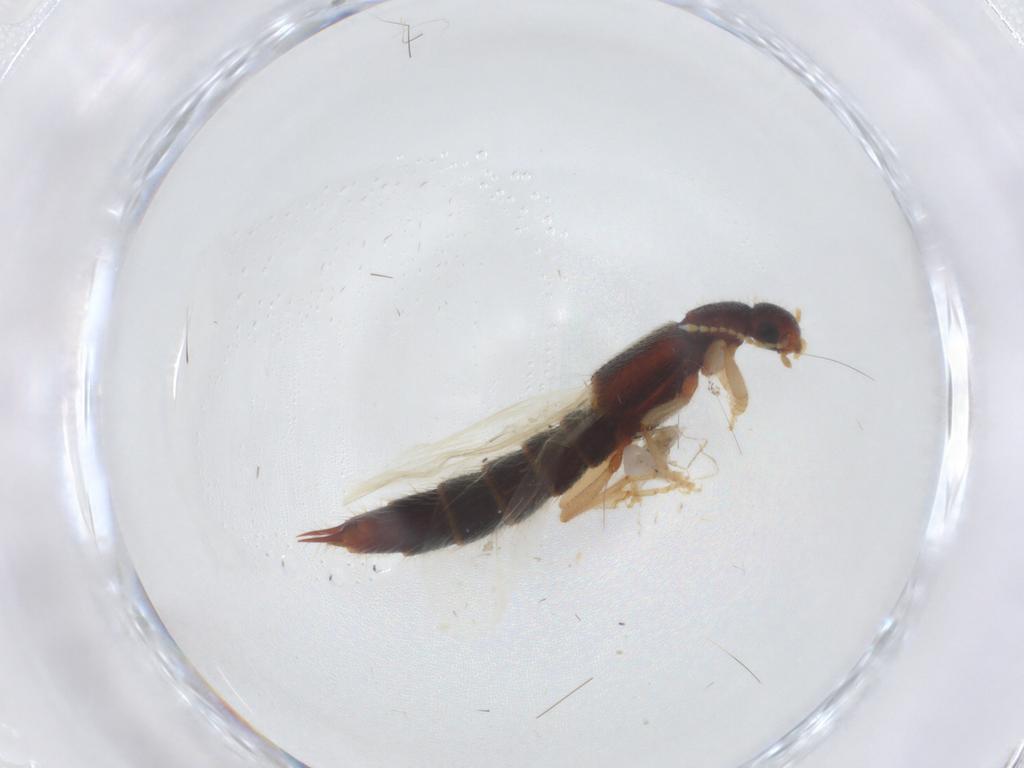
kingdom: Animalia
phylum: Arthropoda
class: Insecta
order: Coleoptera
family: Staphylinidae
